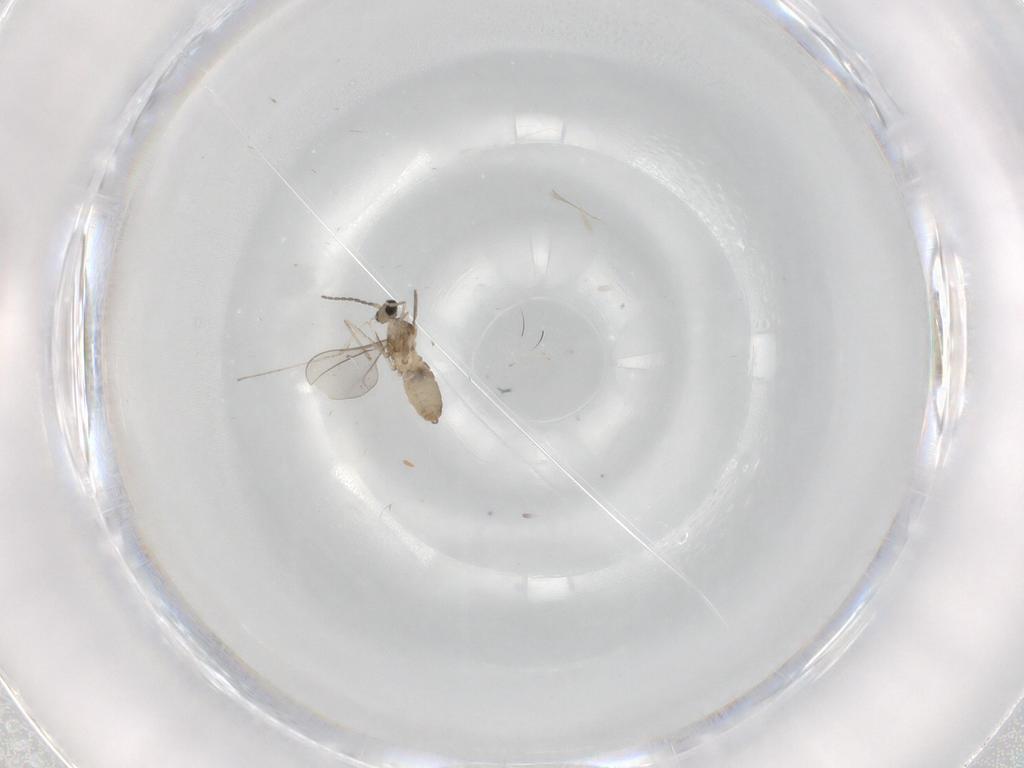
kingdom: Animalia
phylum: Arthropoda
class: Insecta
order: Diptera
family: Cecidomyiidae
